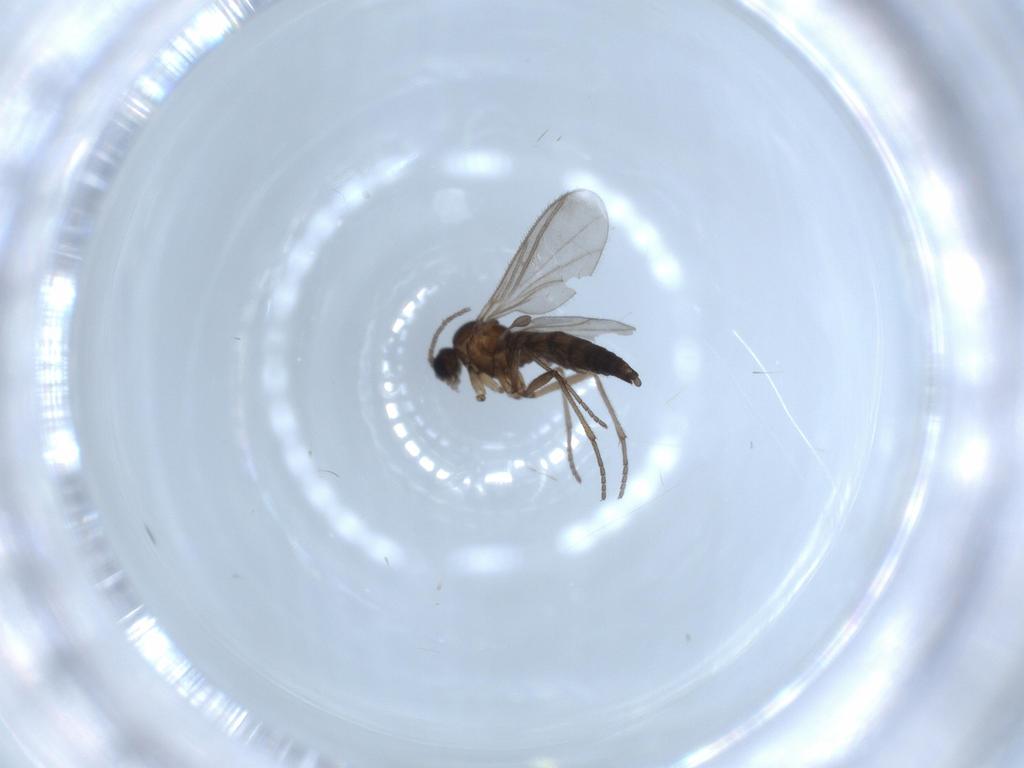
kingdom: Animalia
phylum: Arthropoda
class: Insecta
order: Diptera
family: Sciaridae
